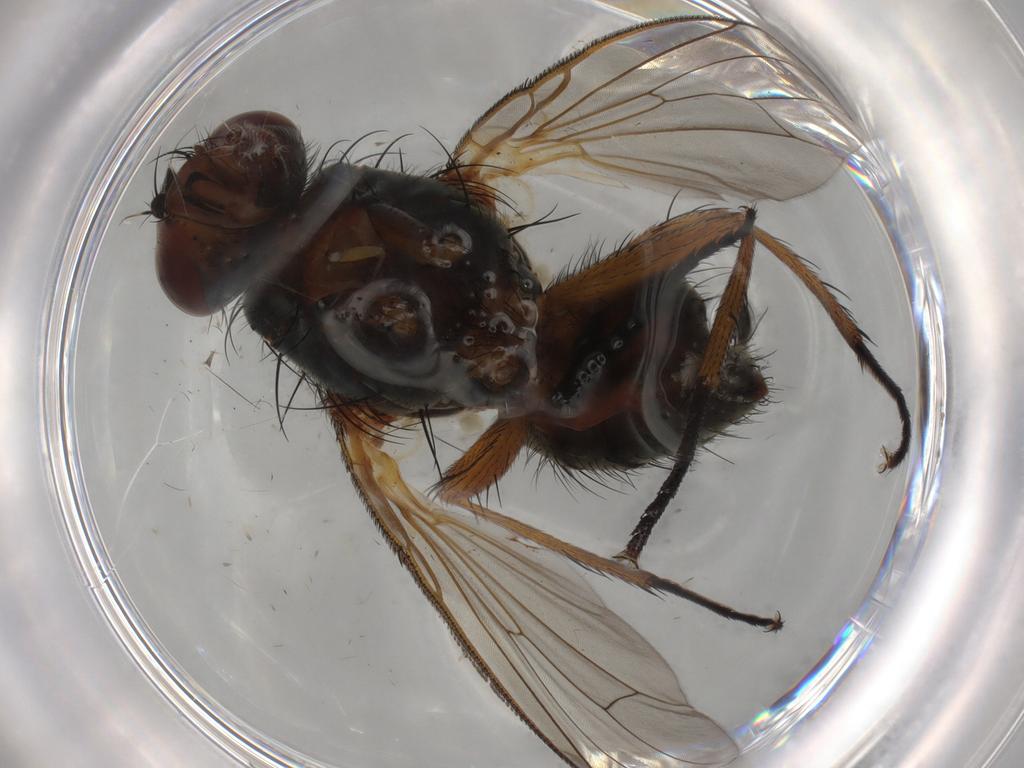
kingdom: Animalia
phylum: Arthropoda
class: Insecta
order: Diptera
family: Anthomyiidae
